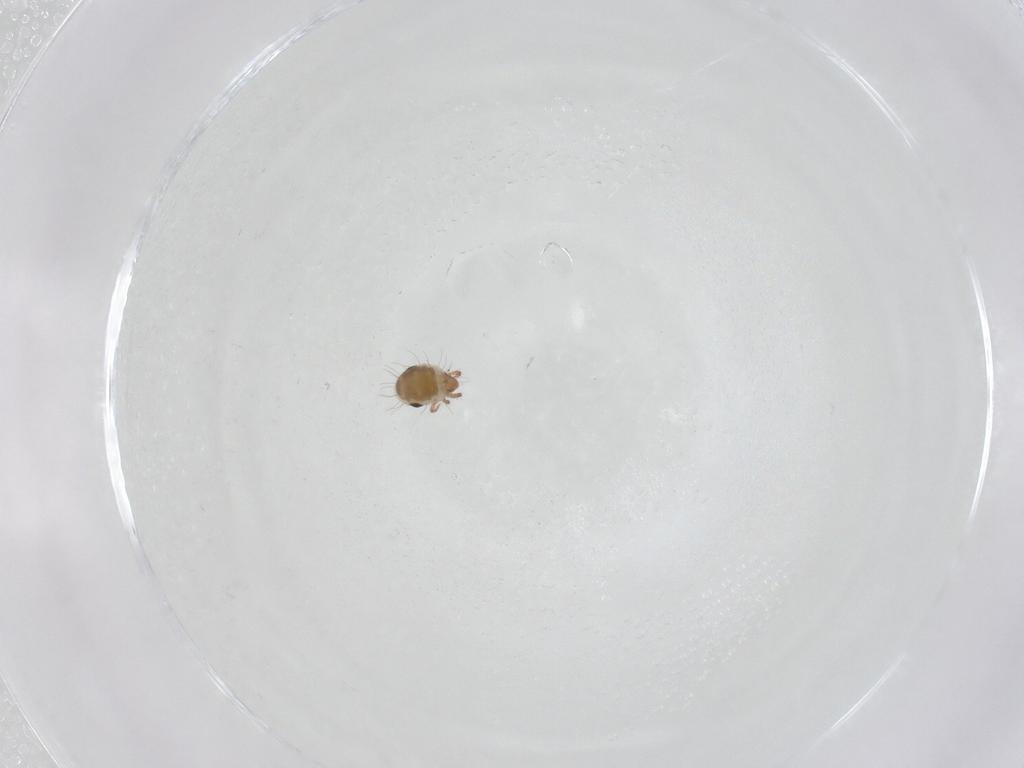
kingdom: Animalia
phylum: Arthropoda
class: Arachnida
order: Sarcoptiformes
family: Ceratozetidae
